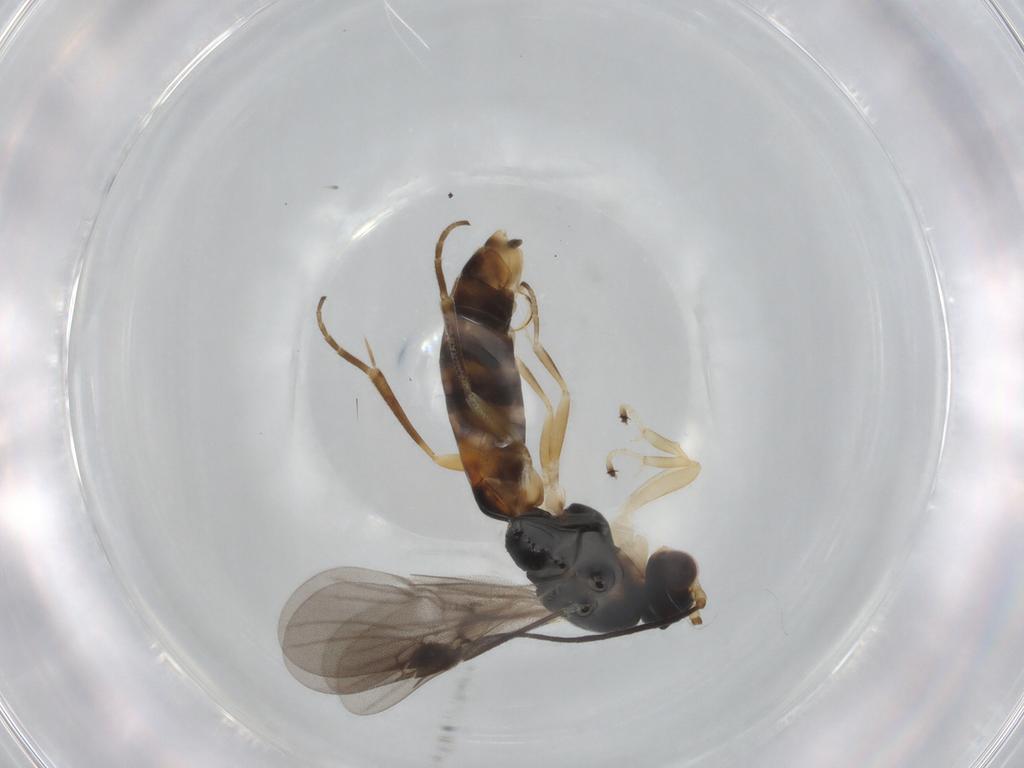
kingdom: Animalia
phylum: Arthropoda
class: Insecta
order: Hymenoptera
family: Braconidae
